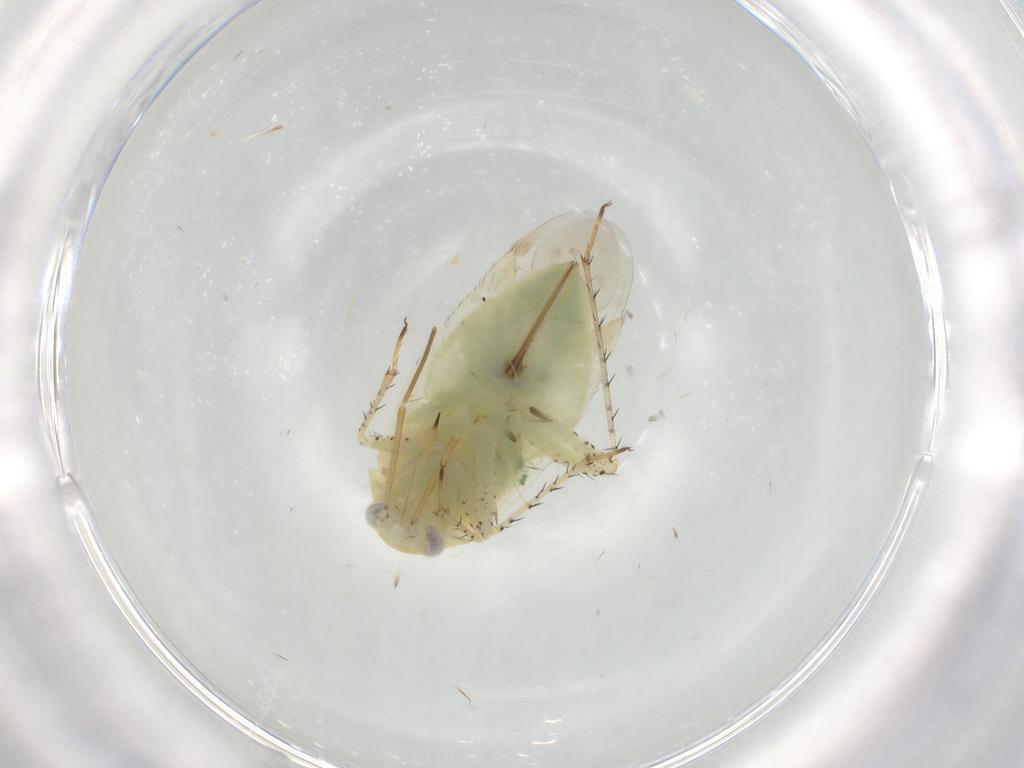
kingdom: Animalia
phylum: Arthropoda
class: Insecta
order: Hemiptera
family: Miridae
